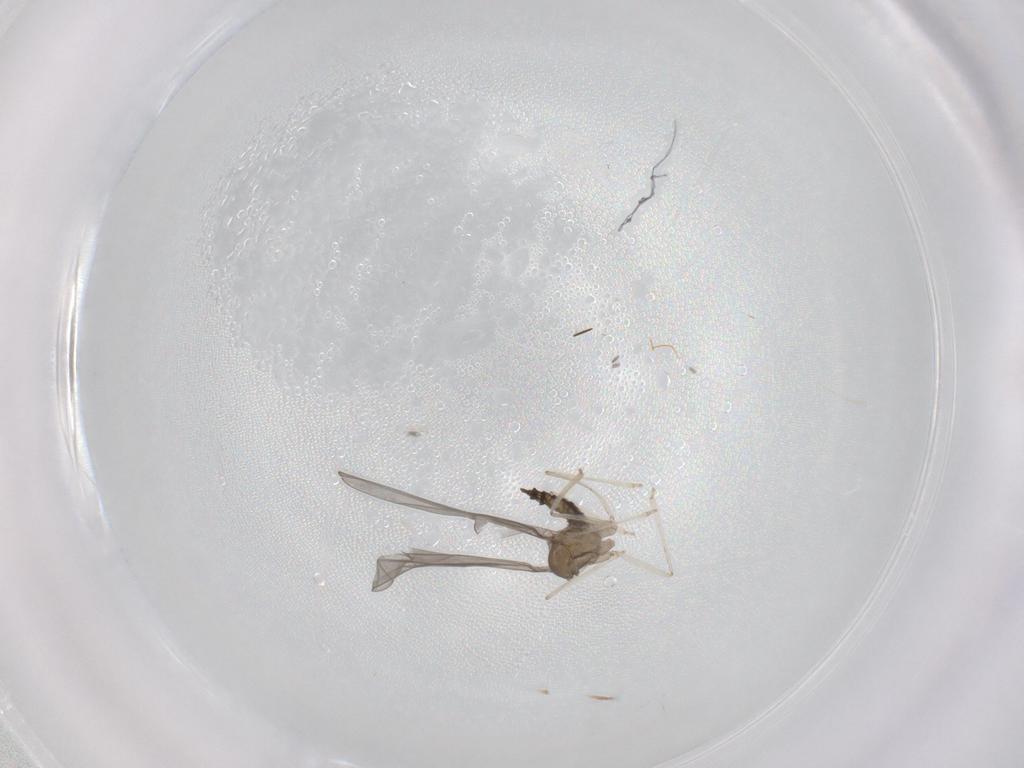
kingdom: Animalia
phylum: Arthropoda
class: Insecta
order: Diptera
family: Cecidomyiidae
